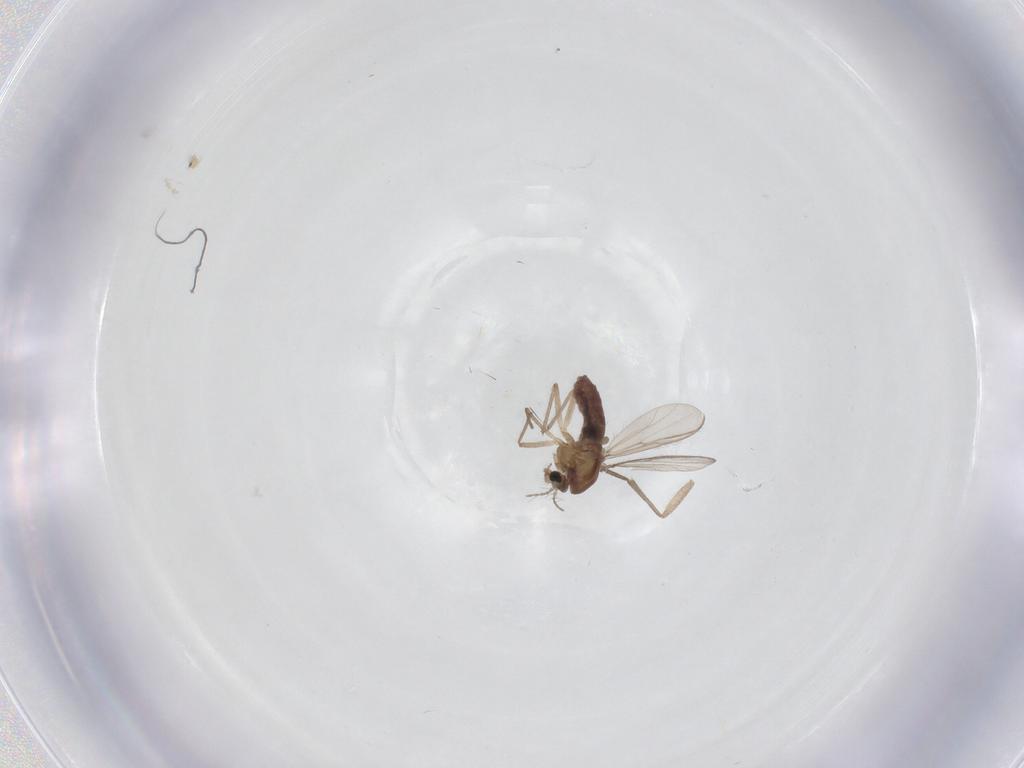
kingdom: Animalia
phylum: Arthropoda
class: Insecta
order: Diptera
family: Chironomidae
